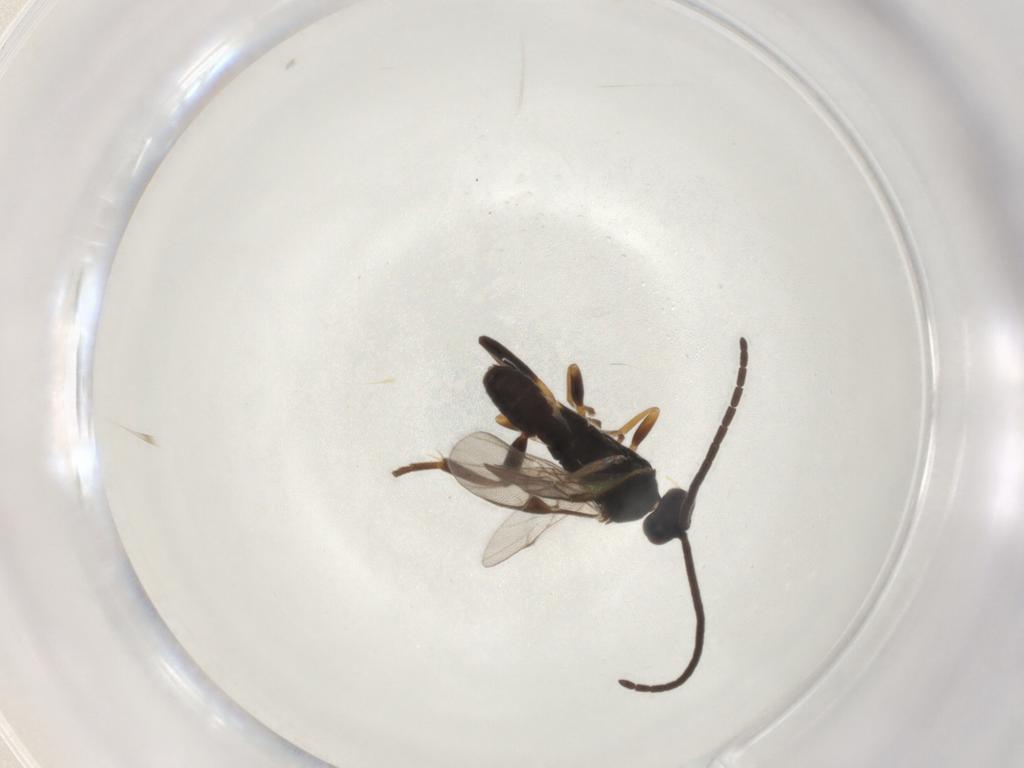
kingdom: Animalia
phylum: Arthropoda
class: Insecta
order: Hymenoptera
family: Braconidae
